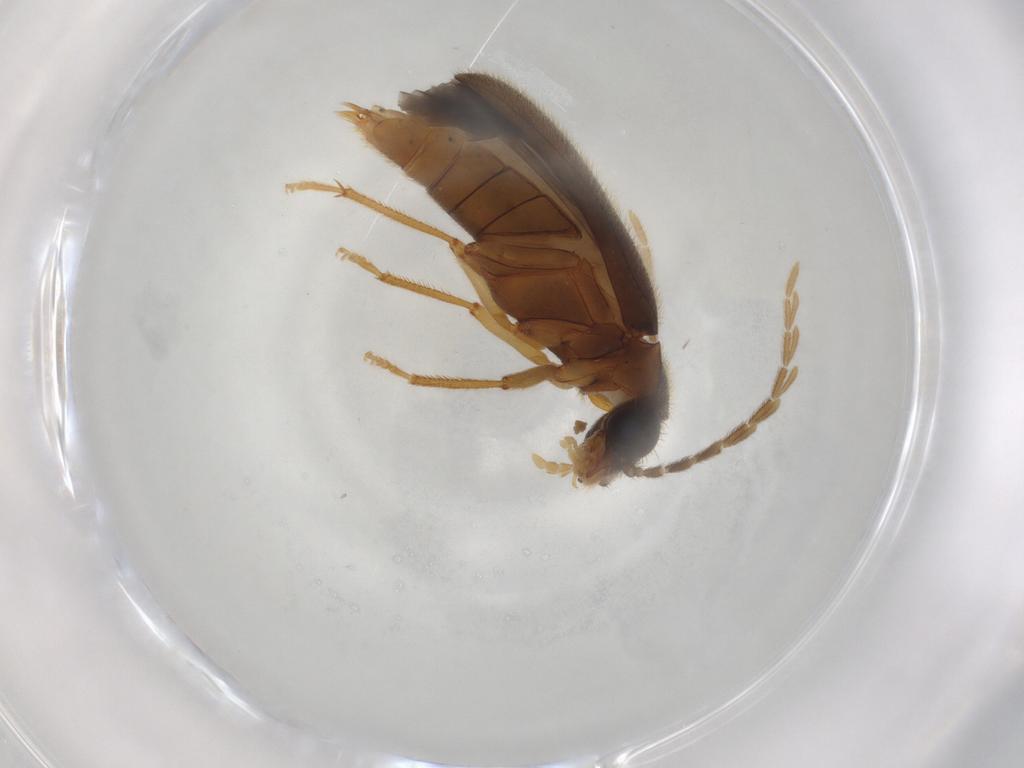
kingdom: Animalia
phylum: Arthropoda
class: Insecta
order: Coleoptera
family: Ptilodactylidae
